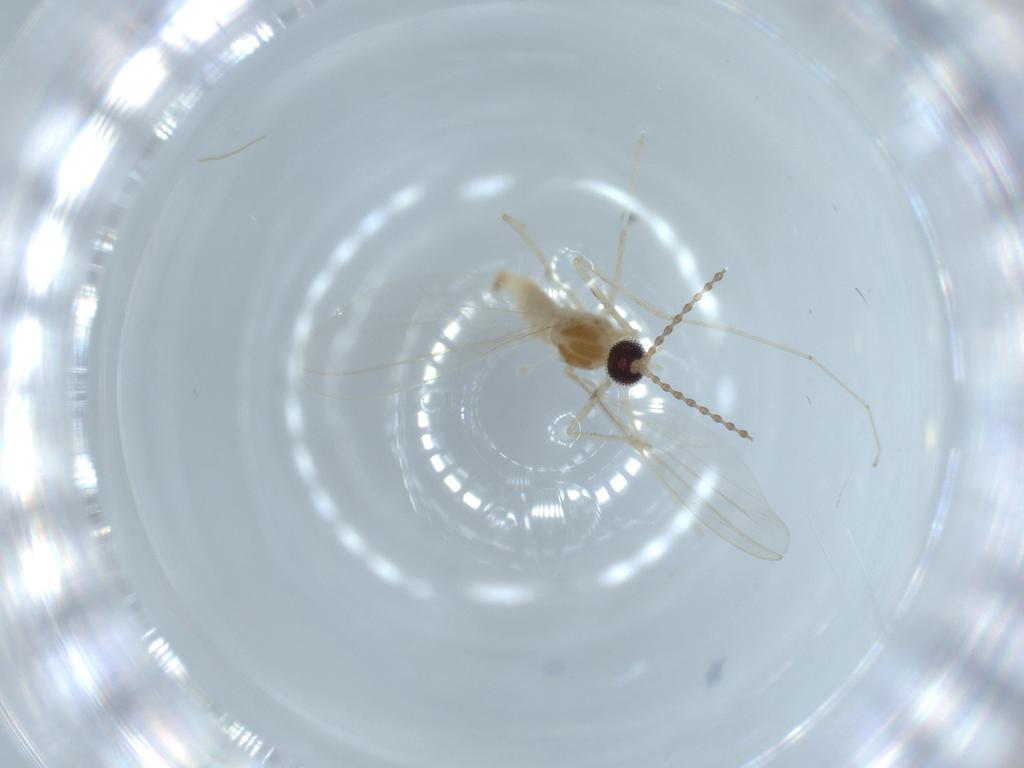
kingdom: Animalia
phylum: Arthropoda
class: Insecta
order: Diptera
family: Cecidomyiidae
